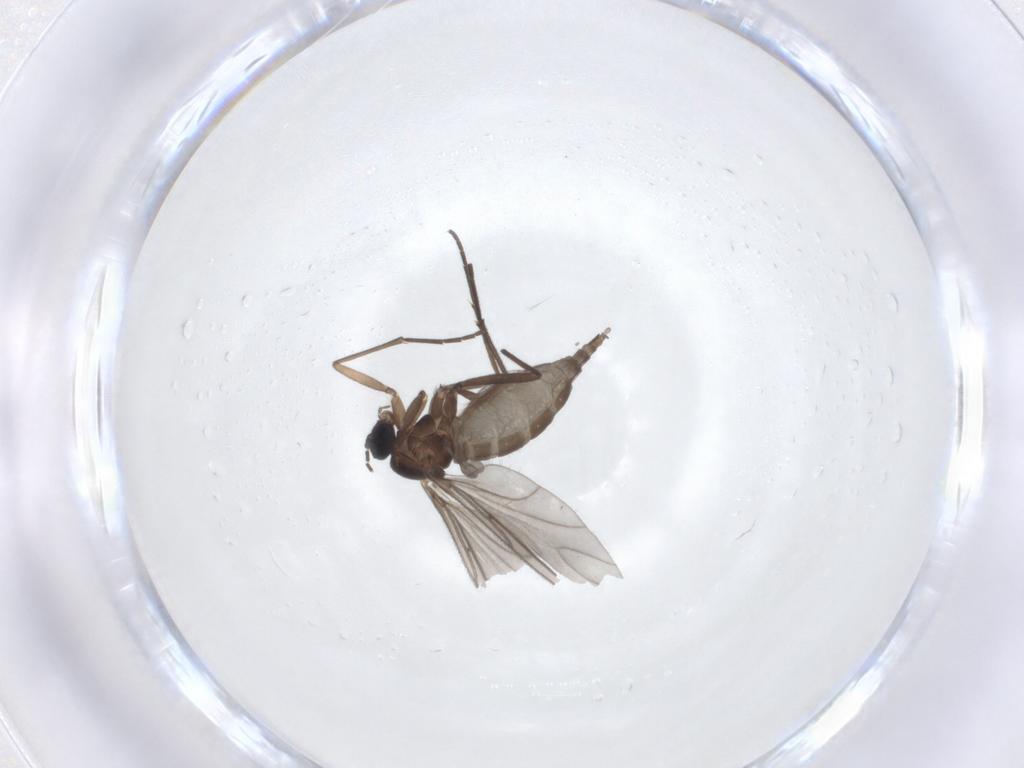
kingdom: Animalia
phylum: Arthropoda
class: Insecta
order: Diptera
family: Sciaridae
